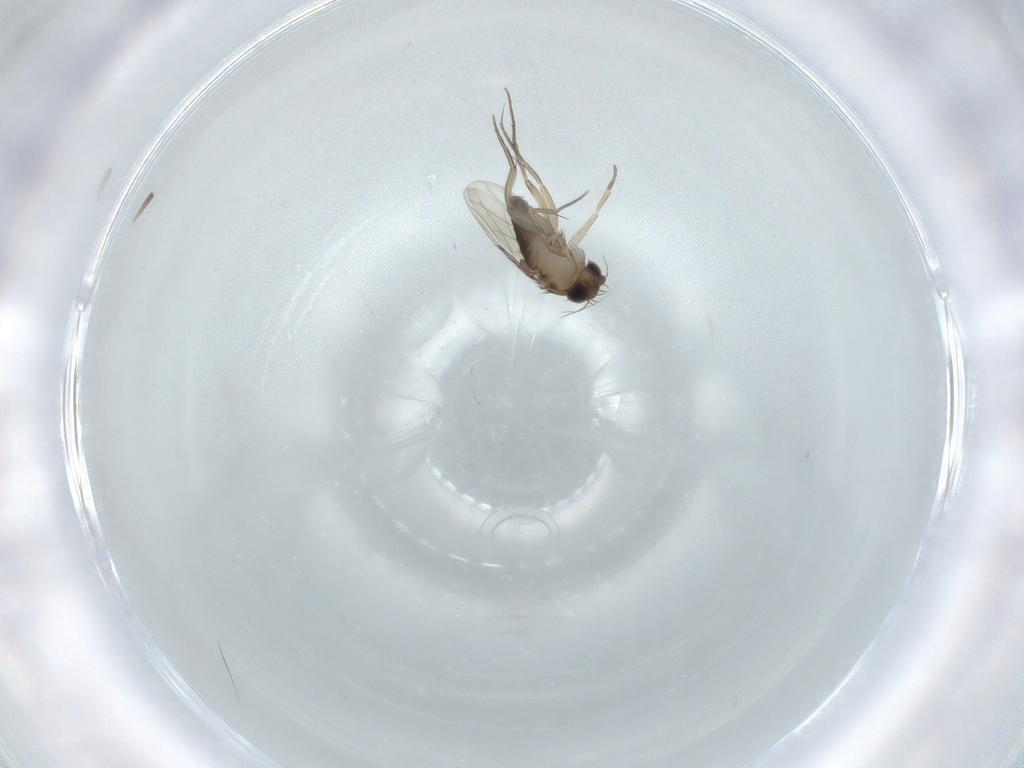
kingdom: Animalia
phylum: Arthropoda
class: Insecta
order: Diptera
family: Phoridae
